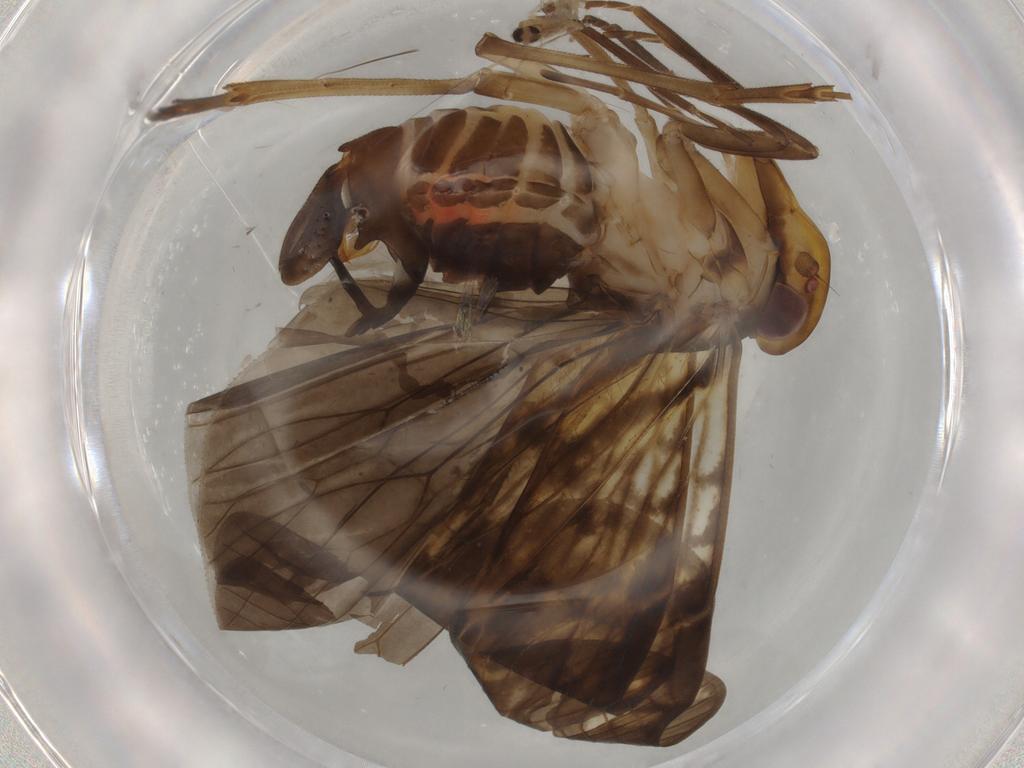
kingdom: Animalia
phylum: Arthropoda
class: Insecta
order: Hemiptera
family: Cixiidae
